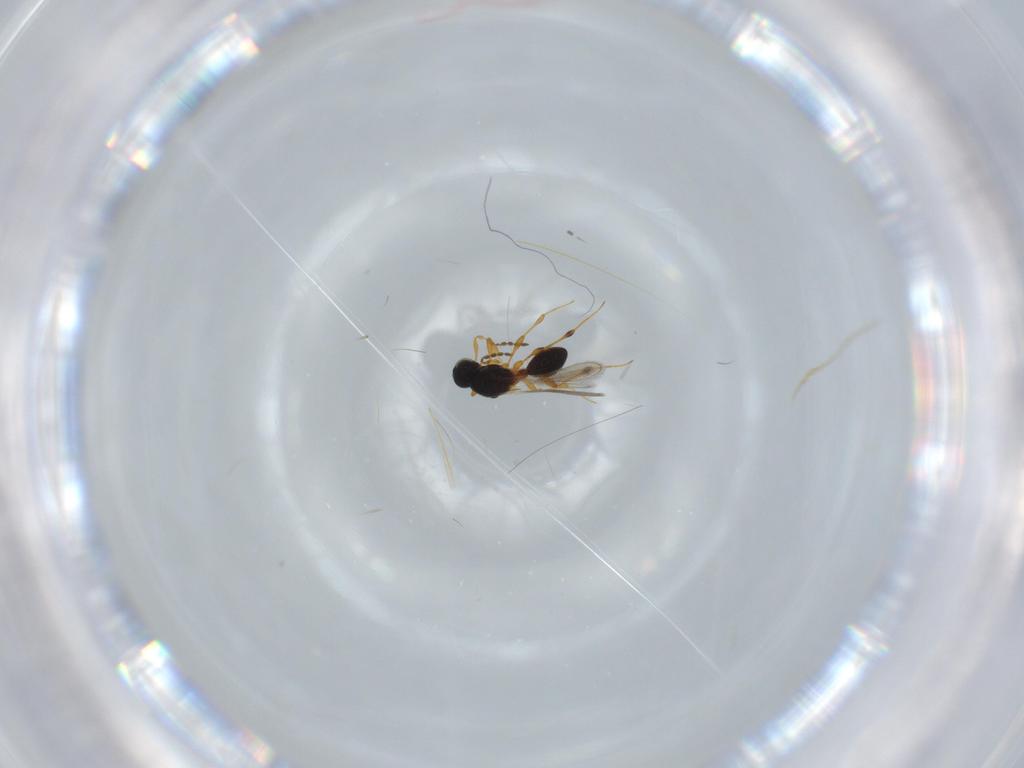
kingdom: Animalia
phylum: Arthropoda
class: Insecta
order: Hymenoptera
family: Platygastridae
